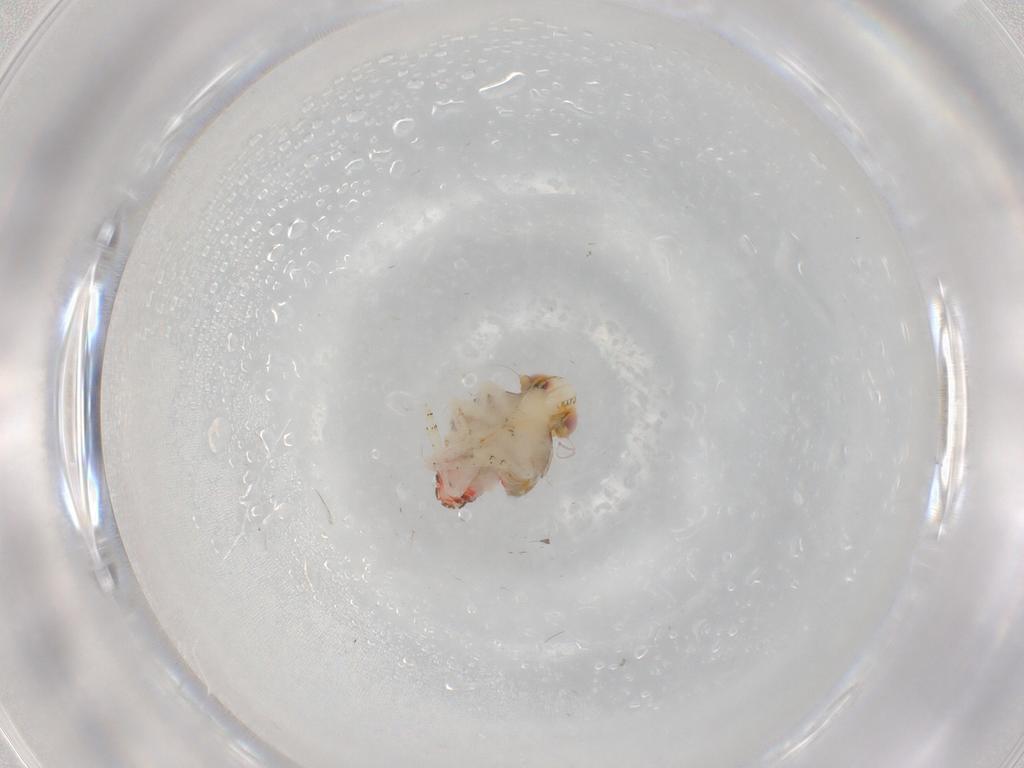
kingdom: Animalia
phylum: Arthropoda
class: Insecta
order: Hemiptera
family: Nogodinidae
